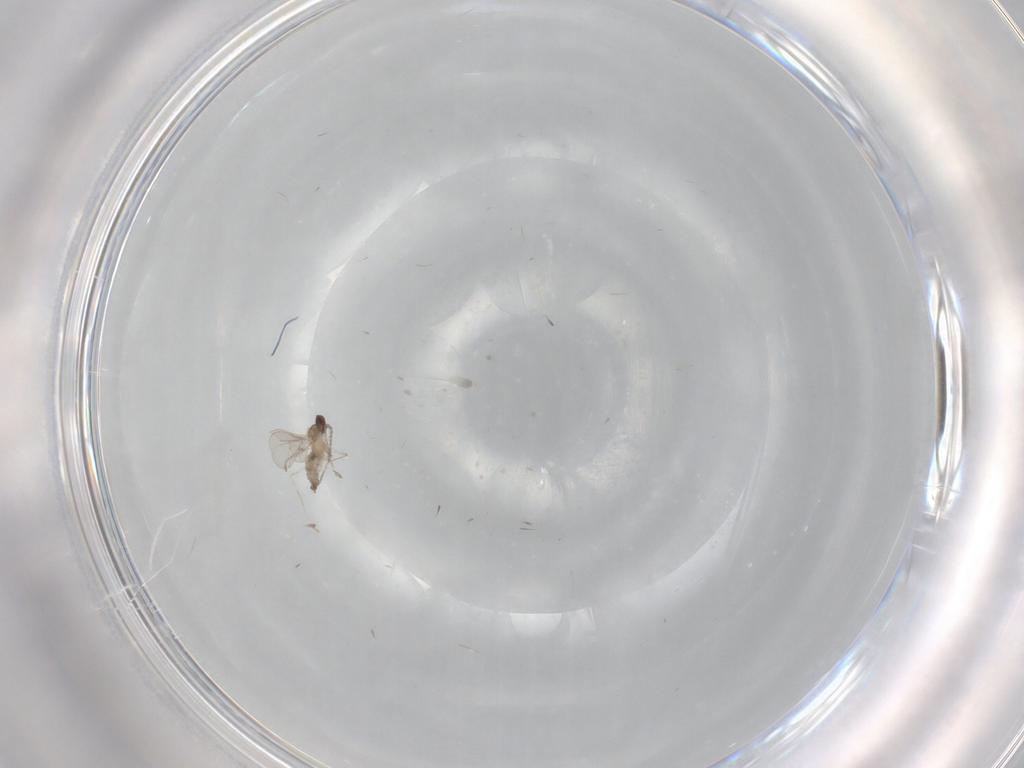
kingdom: Animalia
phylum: Arthropoda
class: Insecta
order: Diptera
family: Cecidomyiidae
